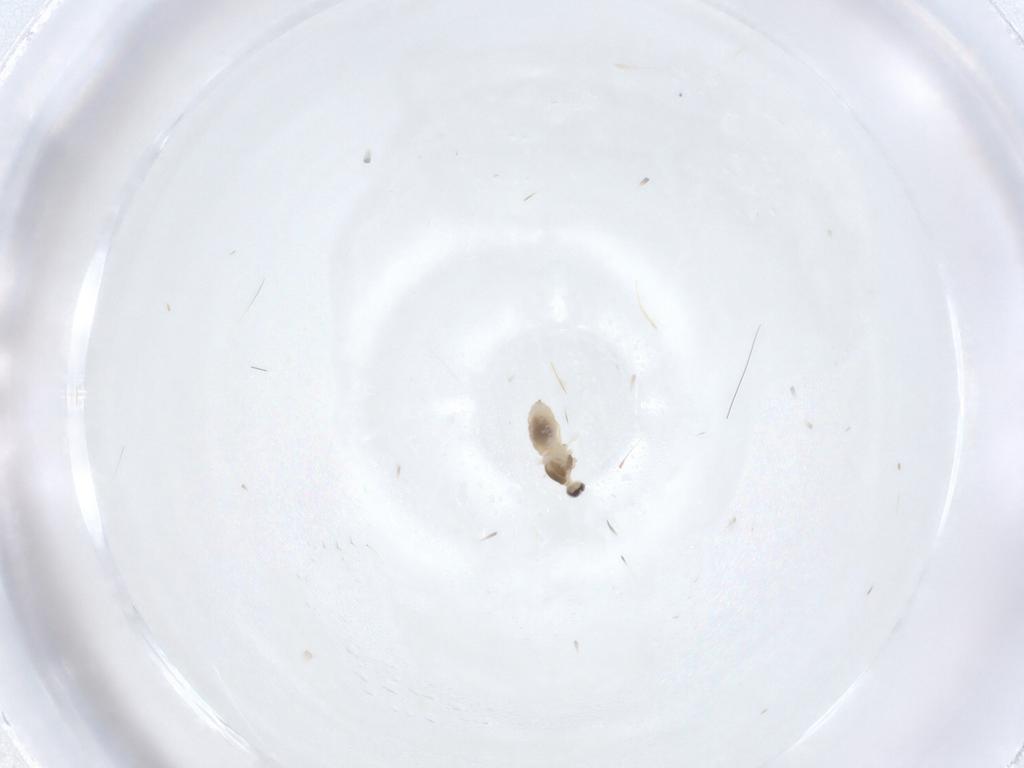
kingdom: Animalia
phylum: Arthropoda
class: Insecta
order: Diptera
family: Cecidomyiidae
